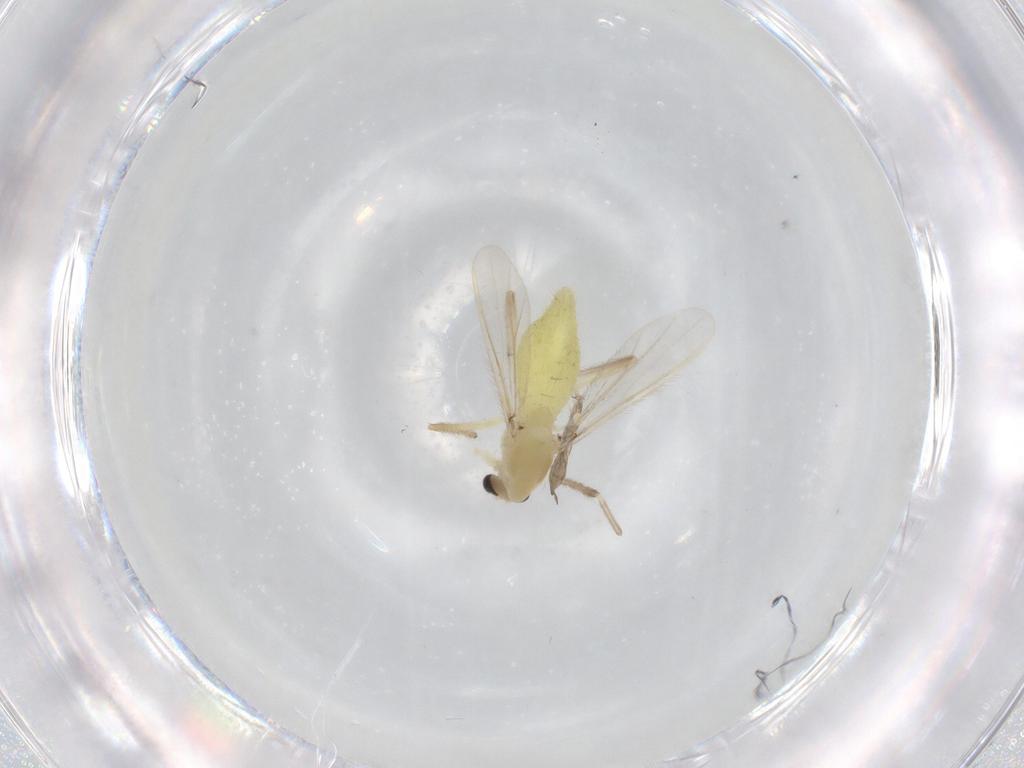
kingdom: Animalia
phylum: Arthropoda
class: Insecta
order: Diptera
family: Chironomidae
